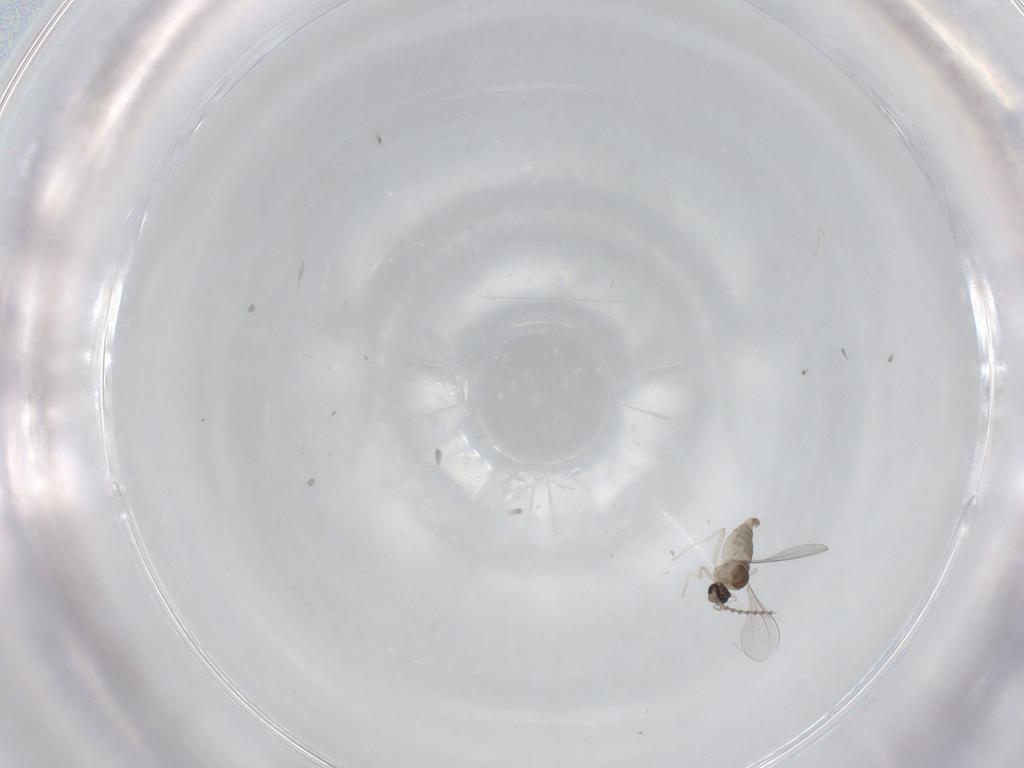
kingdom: Animalia
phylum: Arthropoda
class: Insecta
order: Diptera
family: Cecidomyiidae
